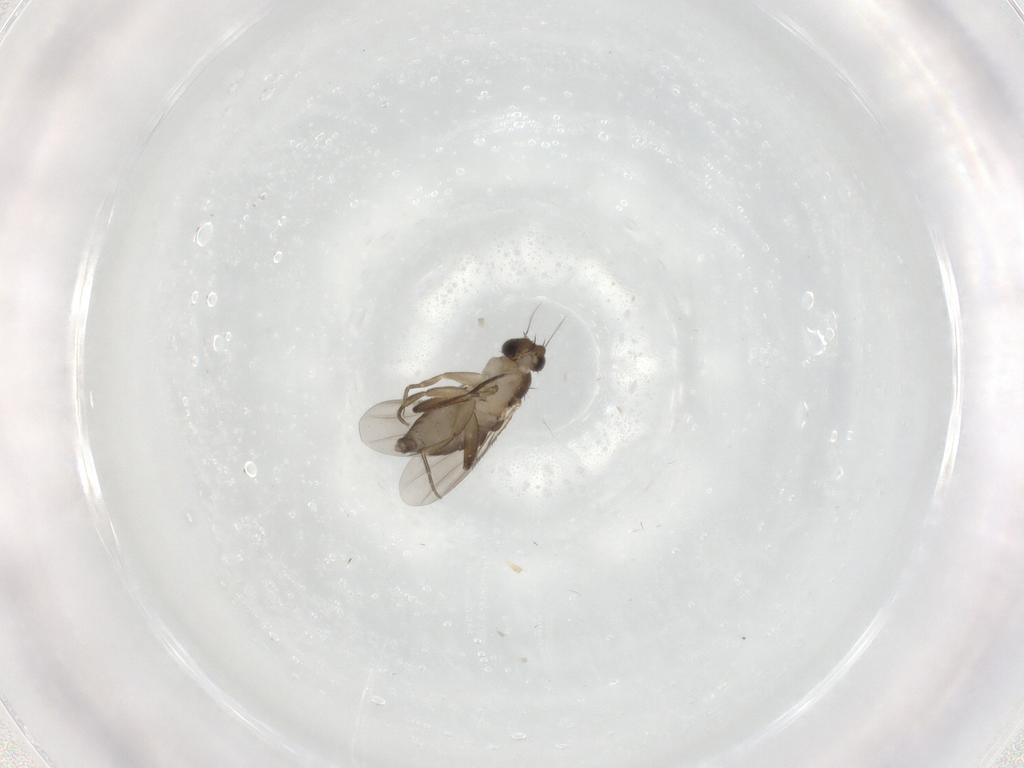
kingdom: Animalia
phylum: Arthropoda
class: Insecta
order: Diptera
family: Phoridae
